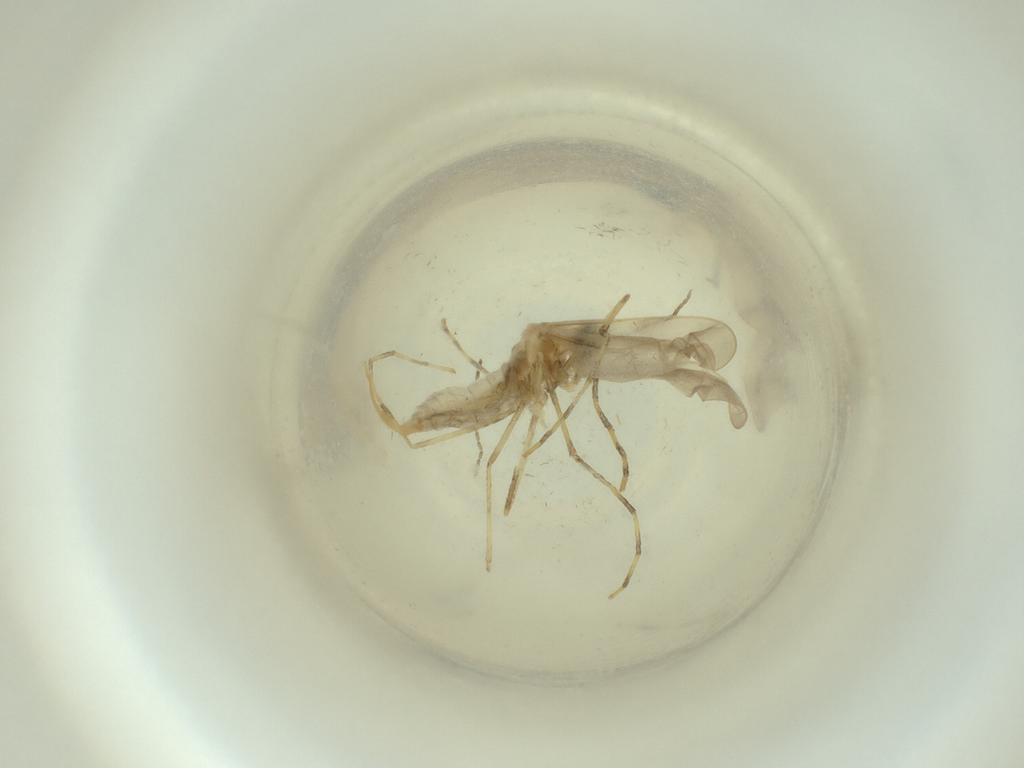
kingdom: Animalia
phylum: Arthropoda
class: Insecta
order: Diptera
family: Cecidomyiidae
